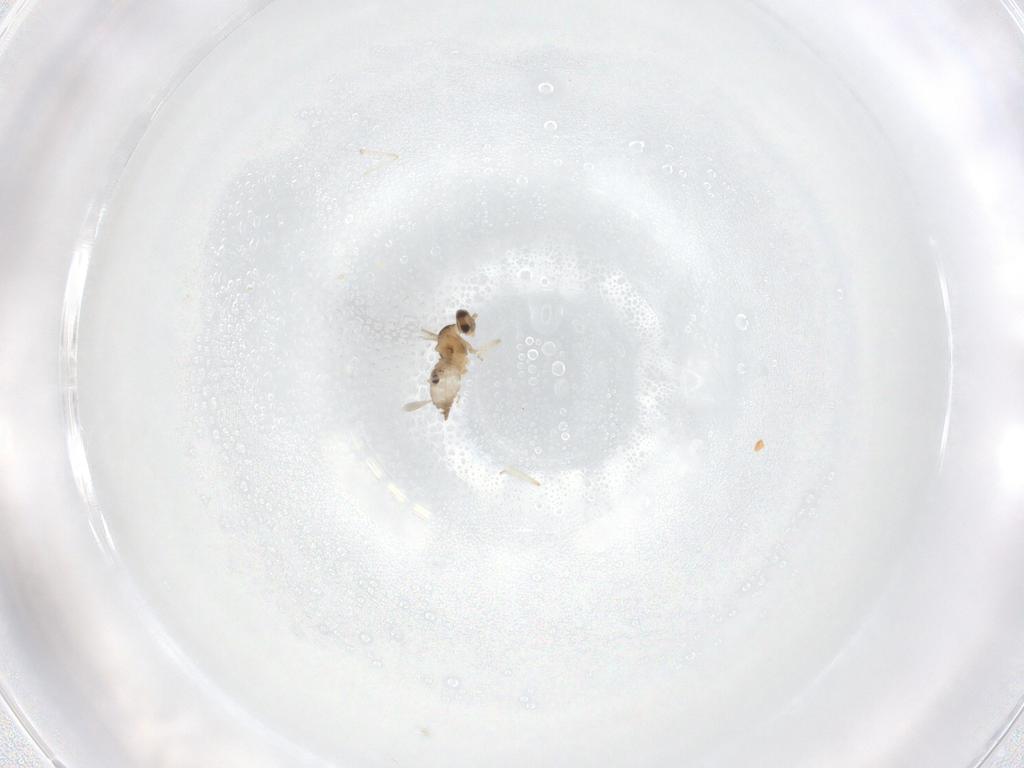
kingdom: Animalia
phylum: Arthropoda
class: Insecta
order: Diptera
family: Cecidomyiidae
